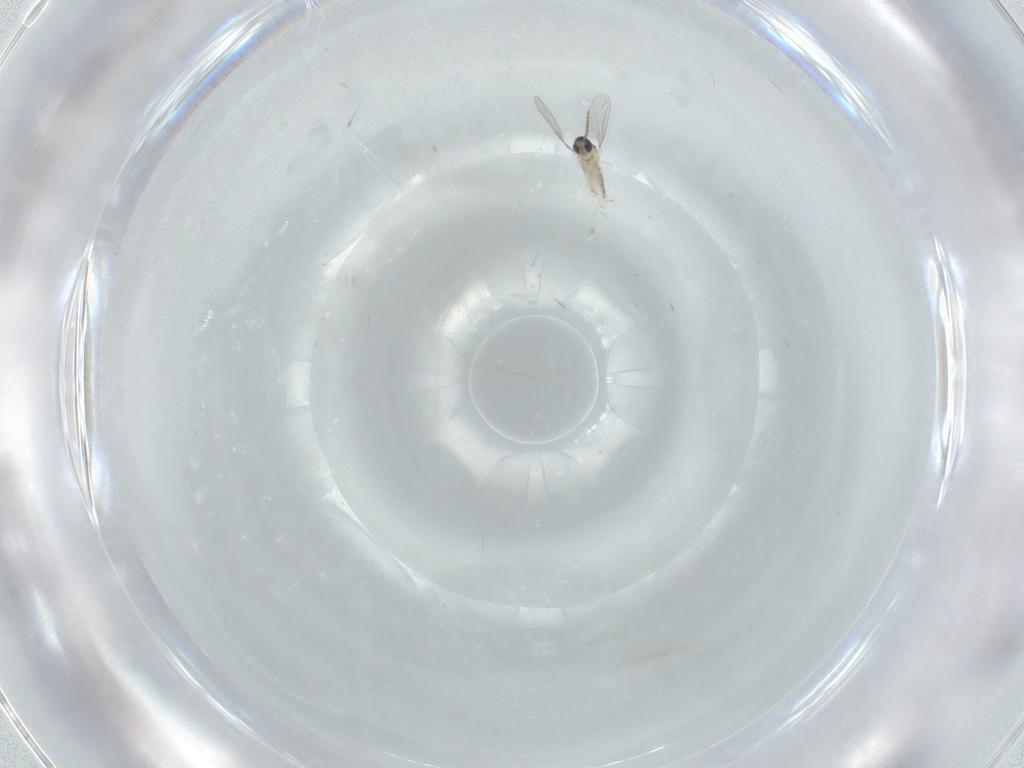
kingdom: Animalia
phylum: Arthropoda
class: Insecta
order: Diptera
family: Cecidomyiidae
